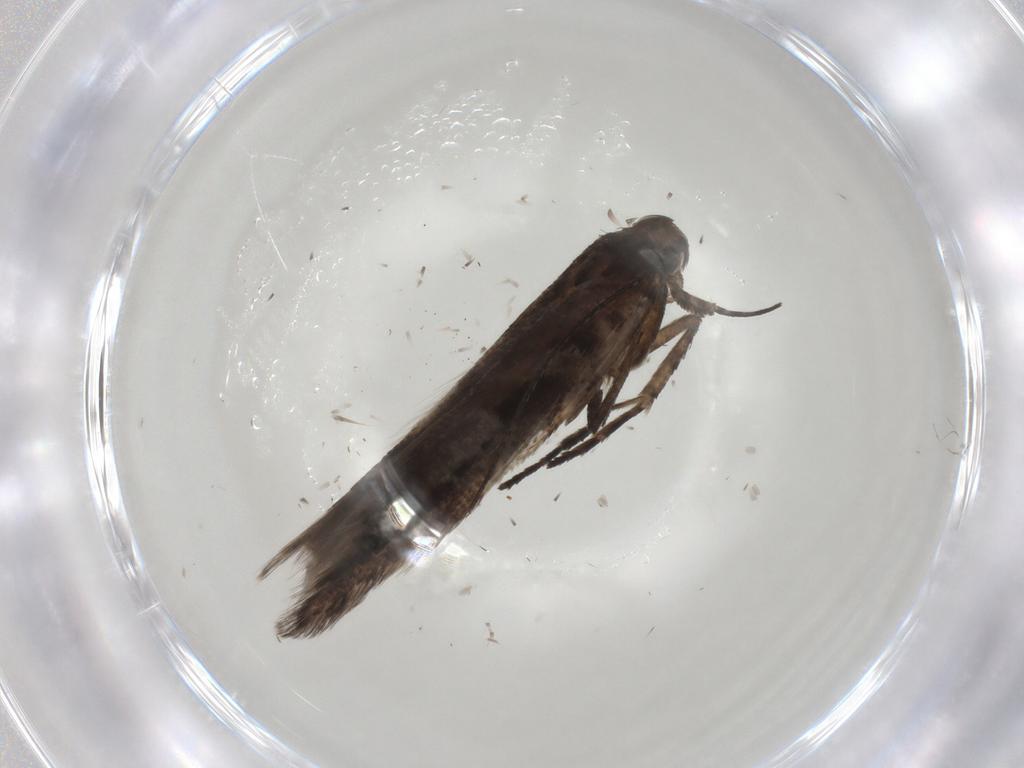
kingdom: Animalia
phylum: Arthropoda
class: Insecta
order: Lepidoptera
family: Gelechiidae
